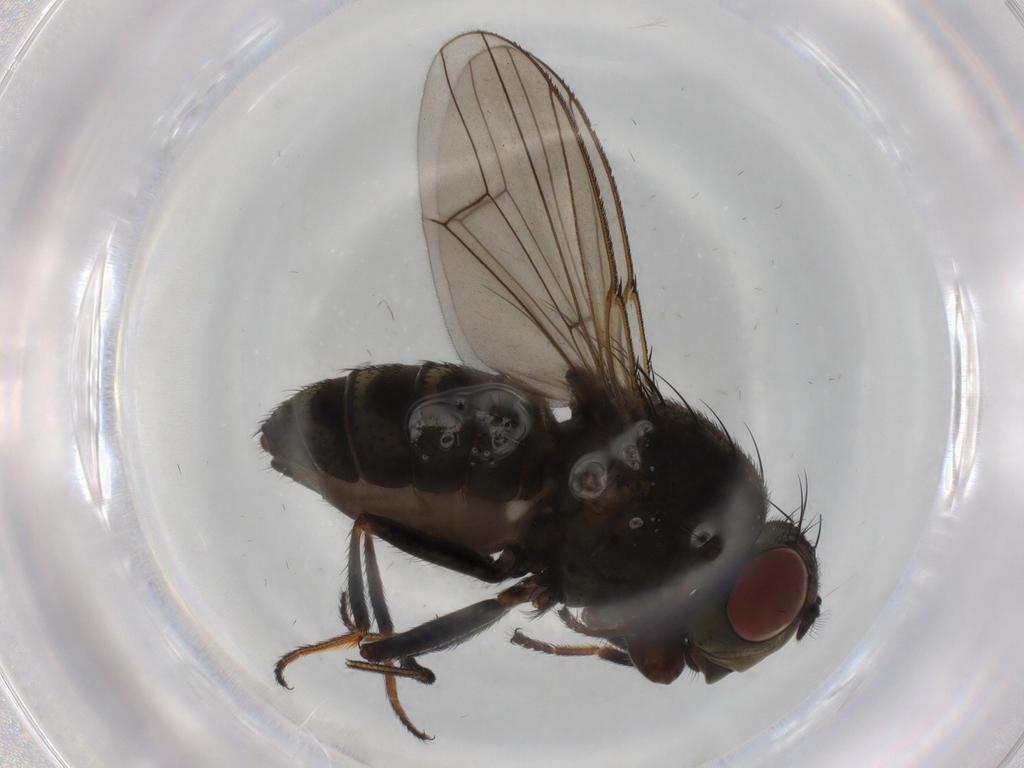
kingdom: Animalia
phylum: Arthropoda
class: Insecta
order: Diptera
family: Ephydridae
